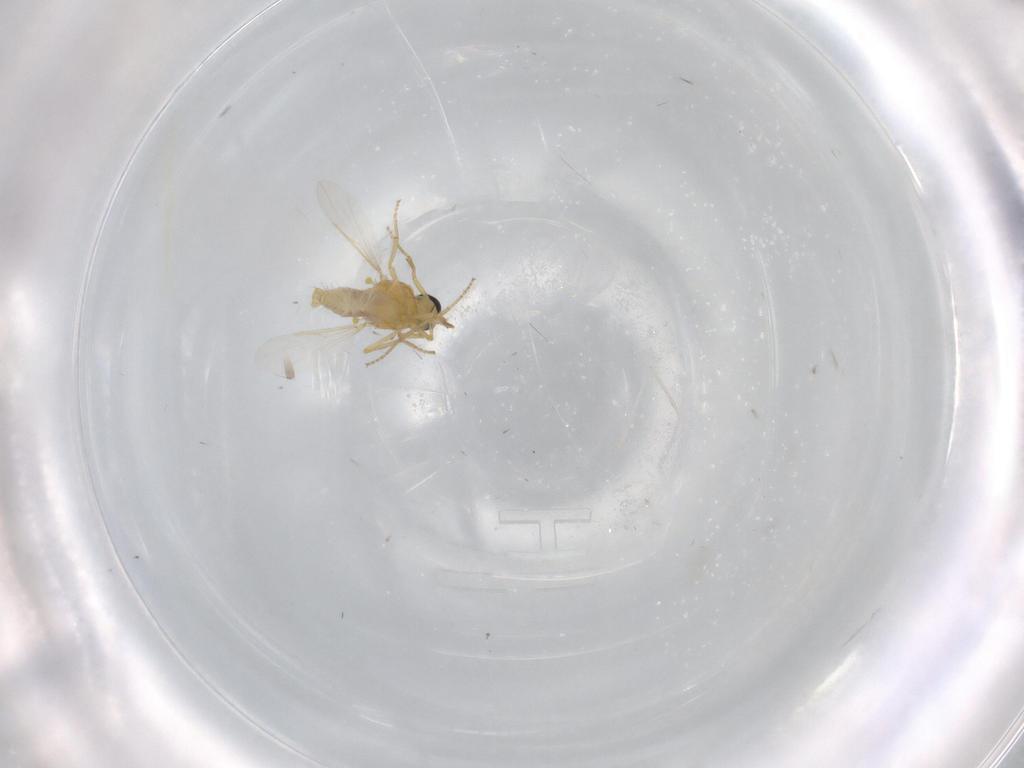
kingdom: Animalia
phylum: Arthropoda
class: Insecta
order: Diptera
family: Cecidomyiidae
